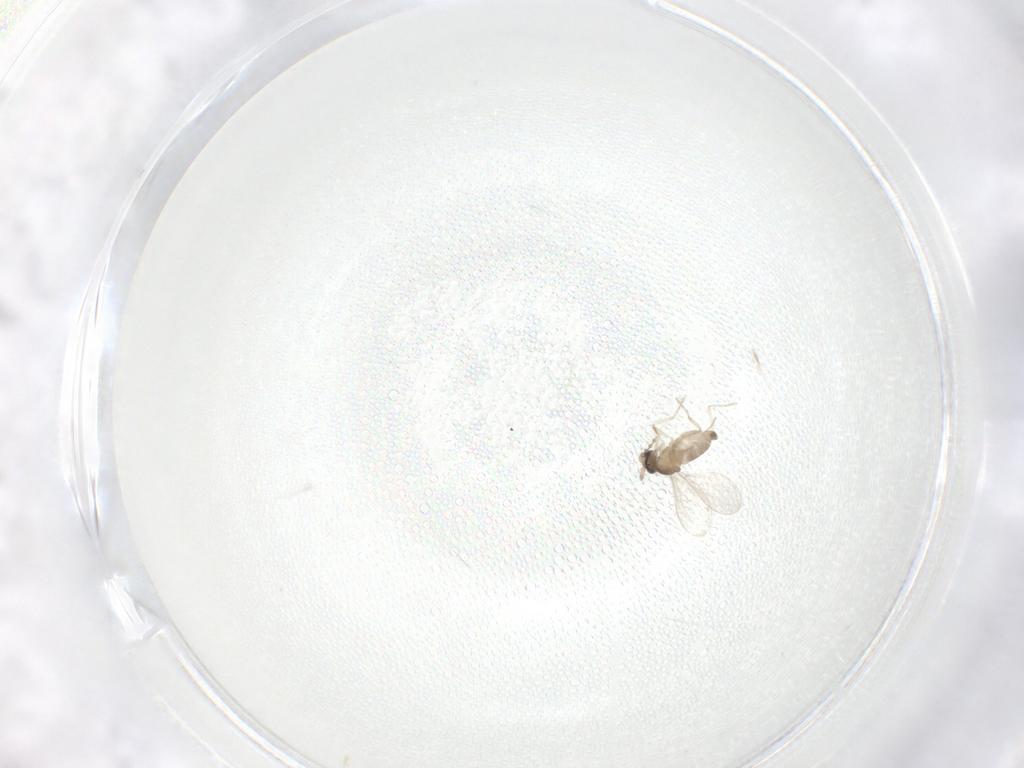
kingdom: Animalia
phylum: Arthropoda
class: Insecta
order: Diptera
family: Cecidomyiidae
